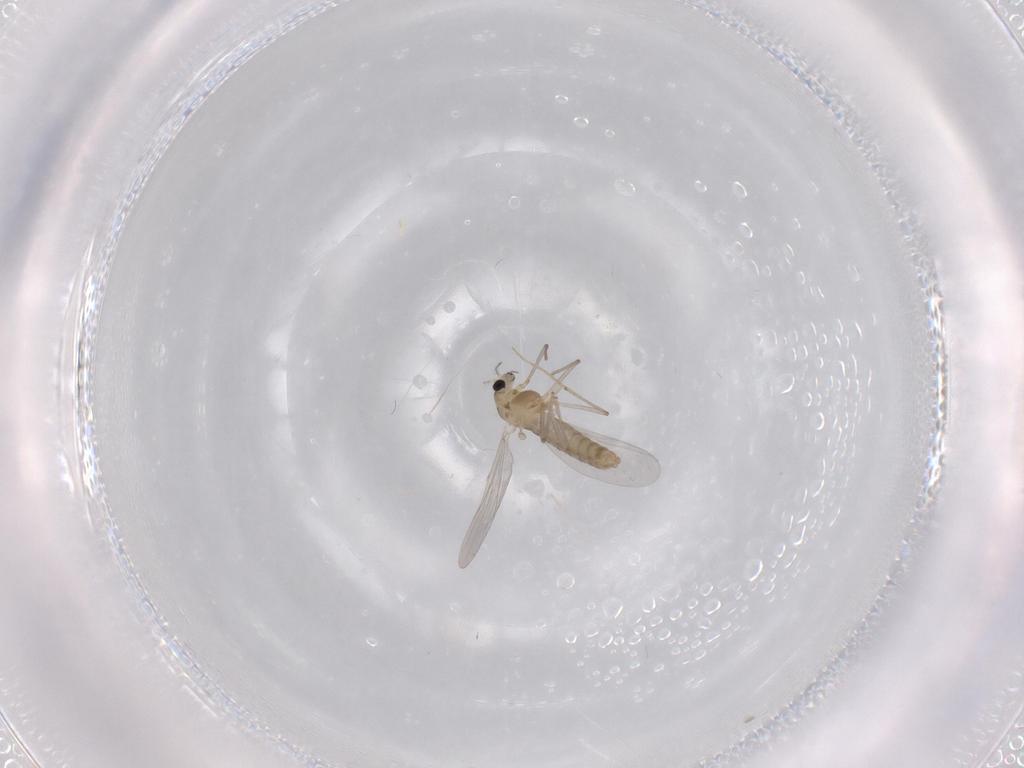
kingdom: Animalia
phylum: Arthropoda
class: Insecta
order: Diptera
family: Chironomidae
